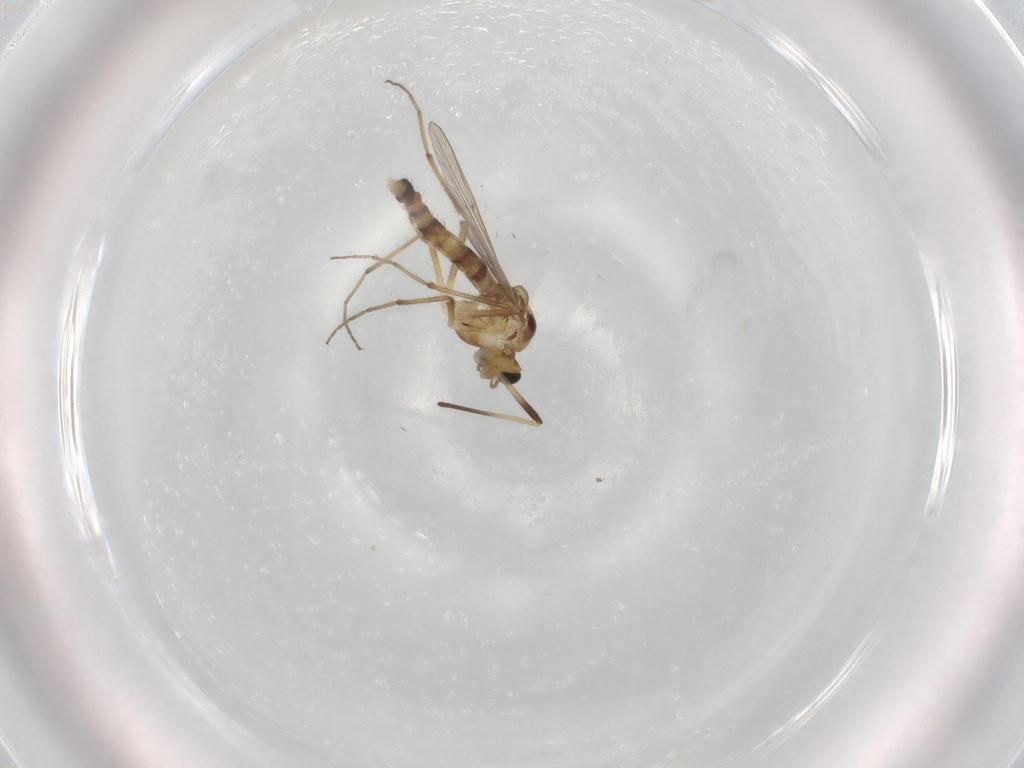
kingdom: Animalia
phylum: Arthropoda
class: Insecta
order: Diptera
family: Chironomidae
